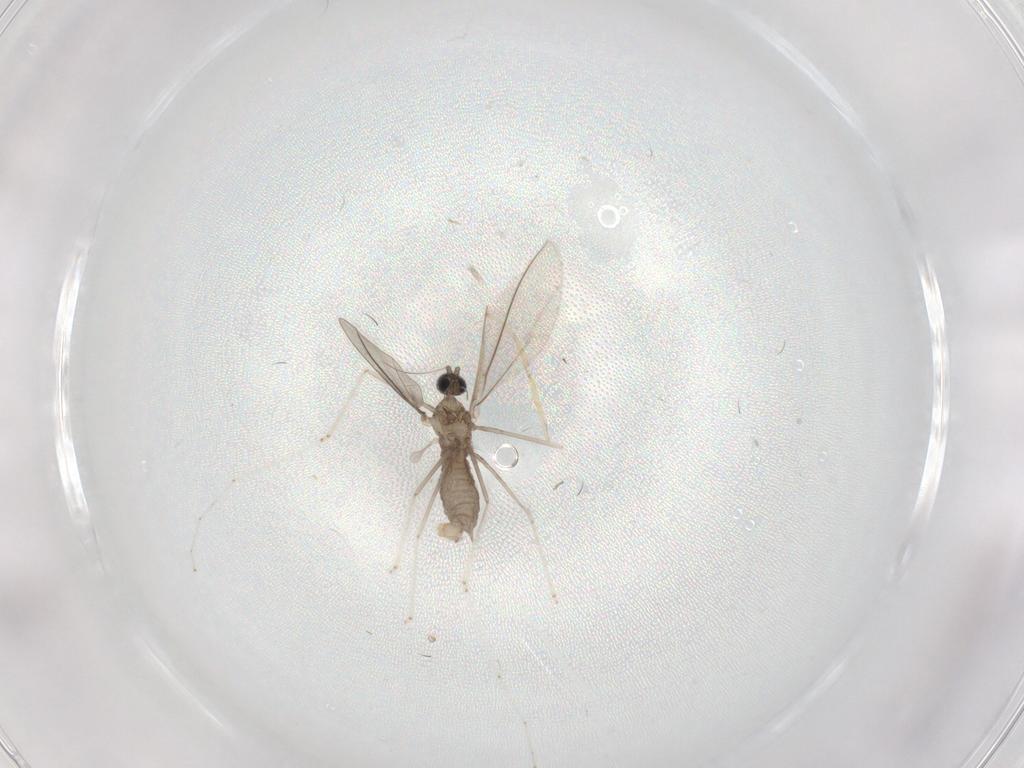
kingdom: Animalia
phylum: Arthropoda
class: Insecta
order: Diptera
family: Cecidomyiidae
